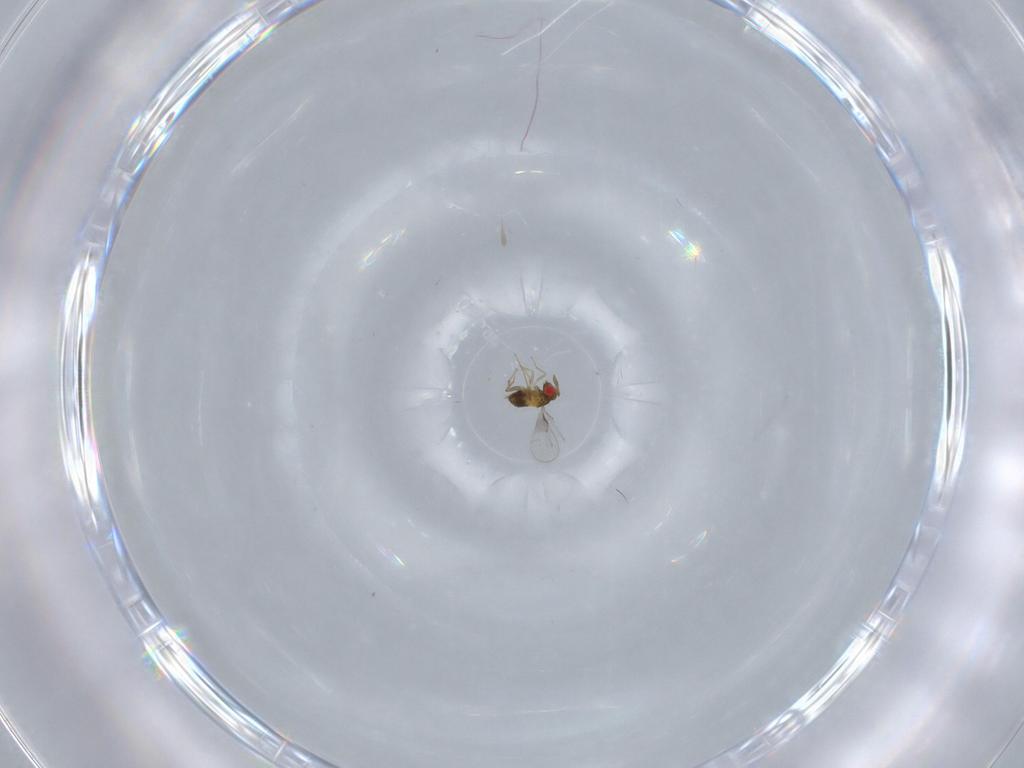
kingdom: Animalia
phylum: Arthropoda
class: Insecta
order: Hymenoptera
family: Trichogrammatidae
